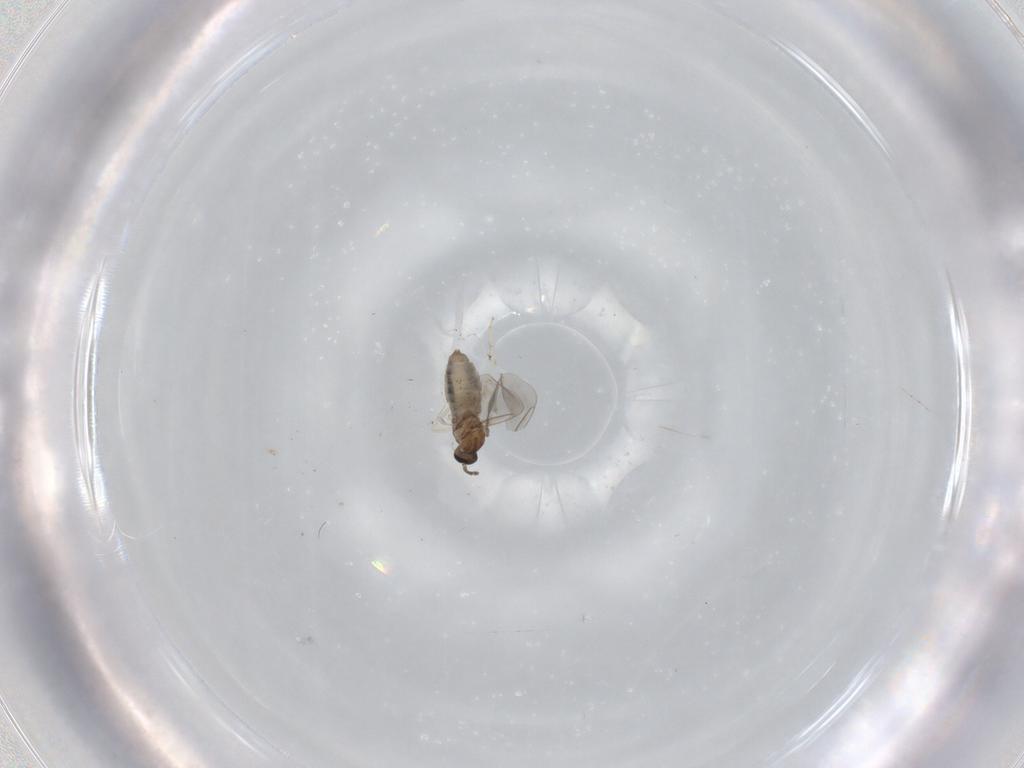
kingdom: Animalia
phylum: Arthropoda
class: Insecta
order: Diptera
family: Cecidomyiidae
